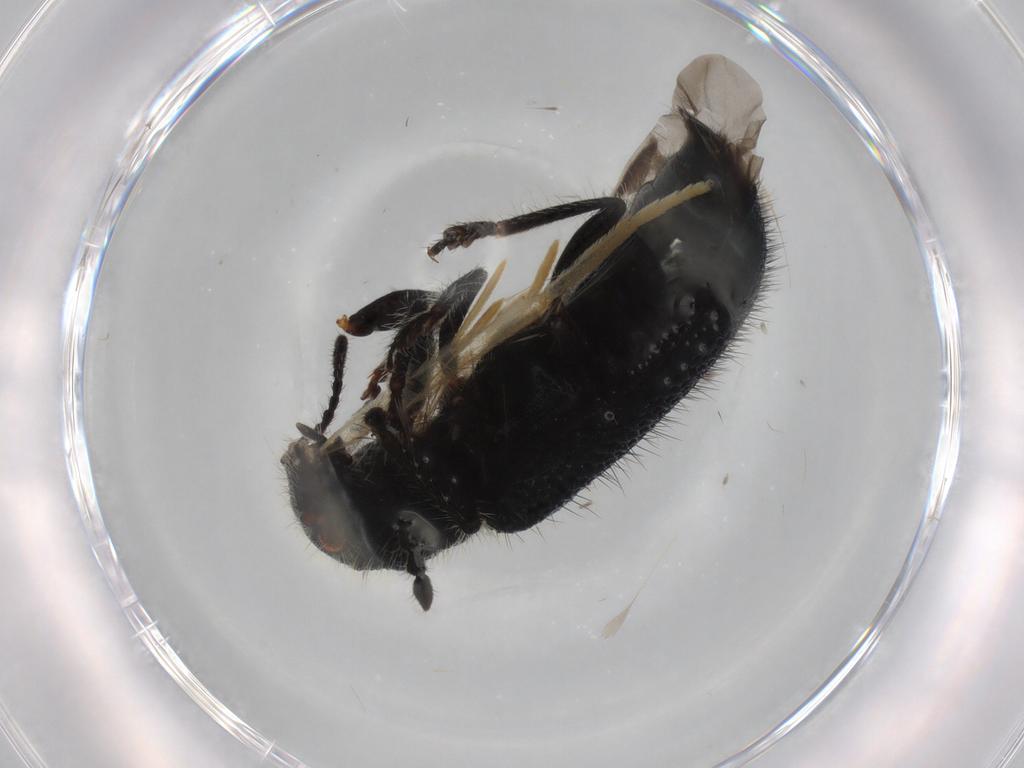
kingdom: Animalia
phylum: Arthropoda
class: Insecta
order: Coleoptera
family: Cleridae
